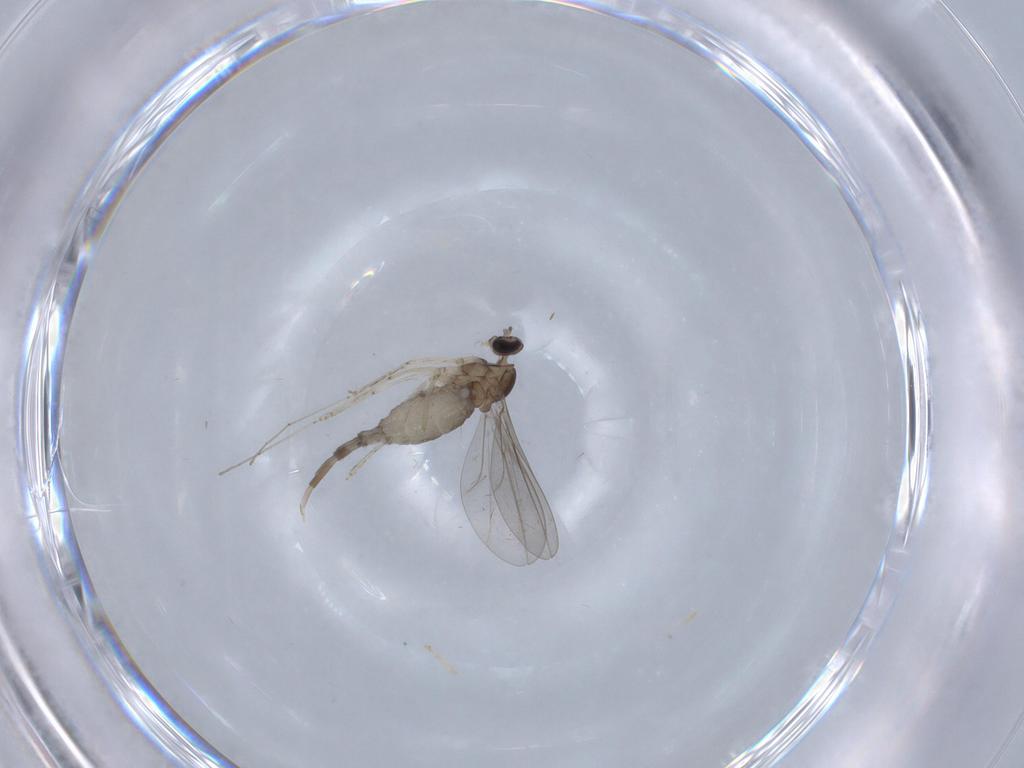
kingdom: Animalia
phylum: Arthropoda
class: Insecta
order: Diptera
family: Cecidomyiidae
